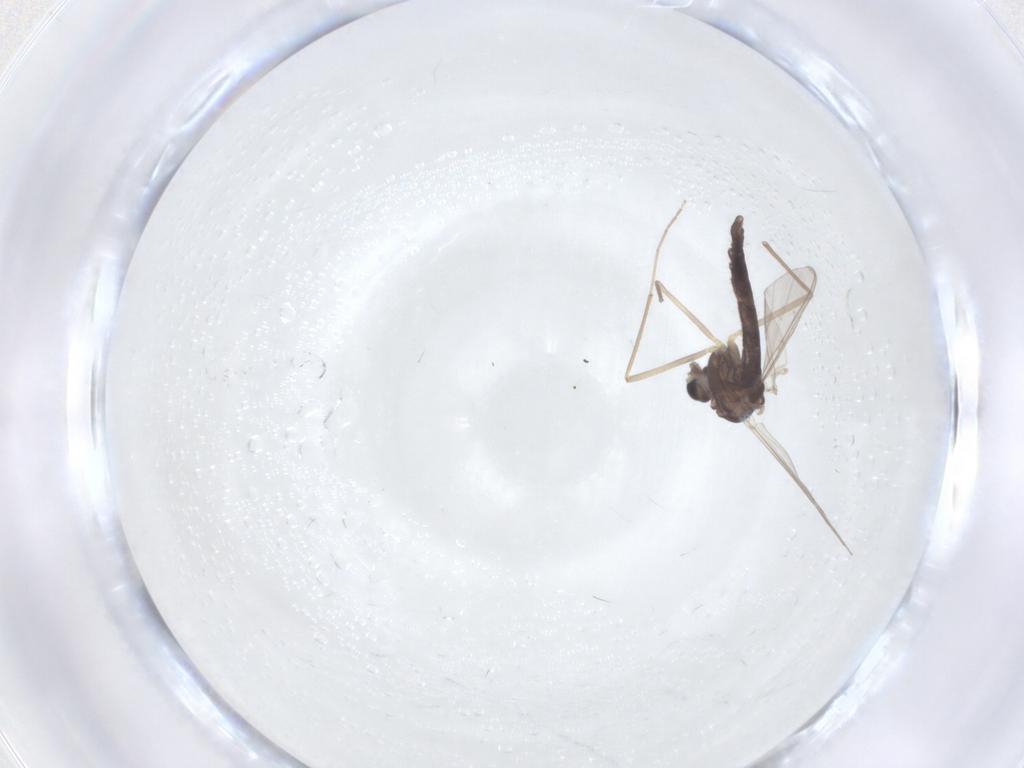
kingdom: Animalia
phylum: Arthropoda
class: Insecta
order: Diptera
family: Chironomidae
